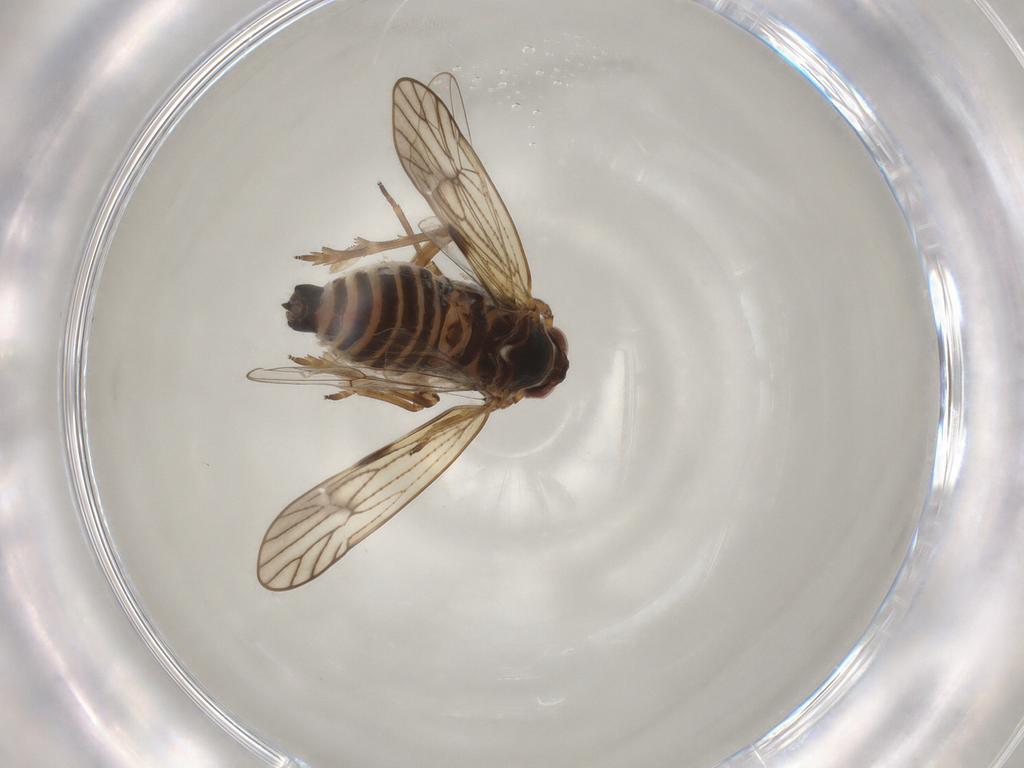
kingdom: Animalia
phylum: Arthropoda
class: Insecta
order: Hemiptera
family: Delphacidae
